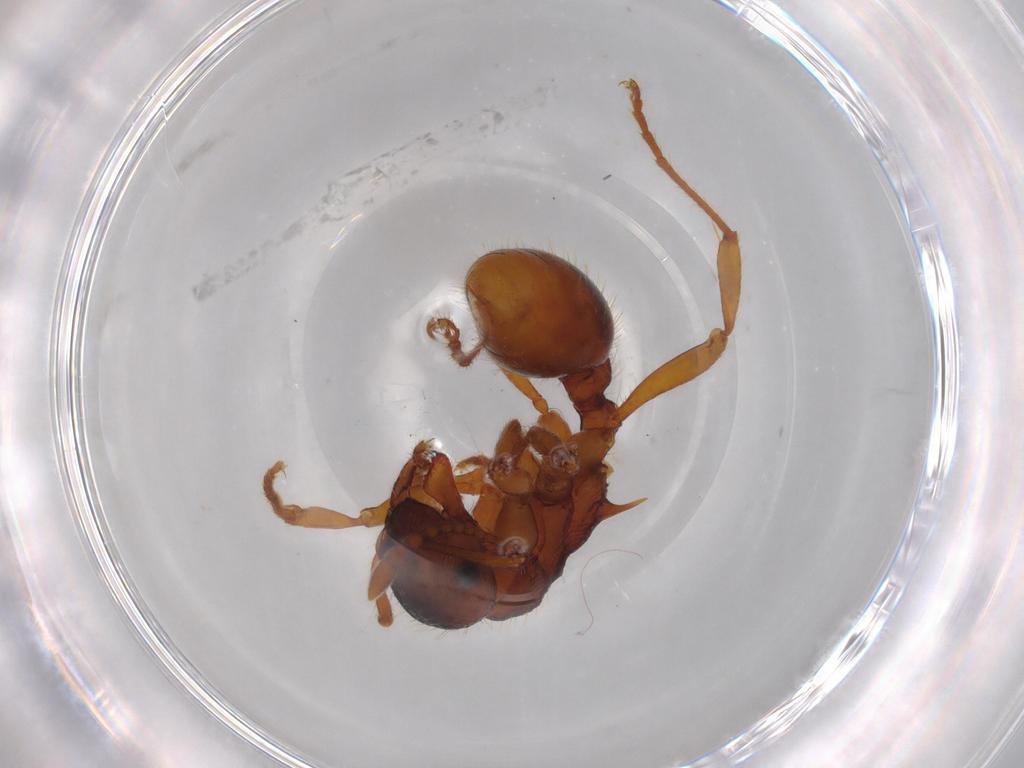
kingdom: Animalia
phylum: Arthropoda
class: Insecta
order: Hymenoptera
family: Formicidae
